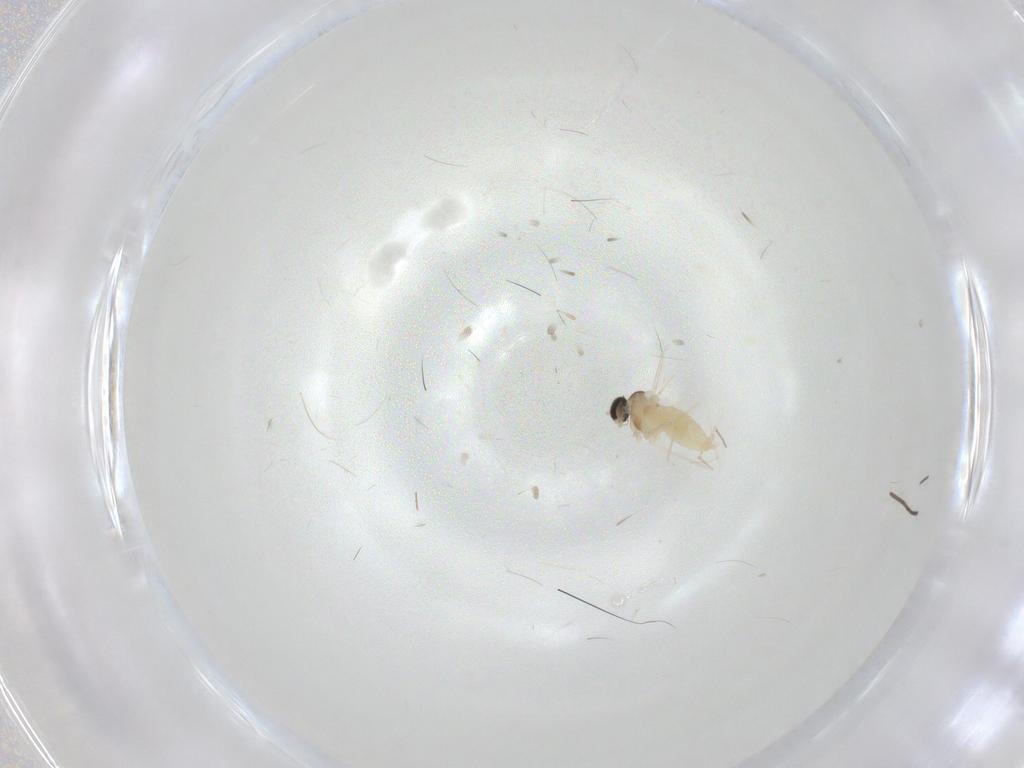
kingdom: Animalia
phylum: Arthropoda
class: Insecta
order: Diptera
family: Cecidomyiidae
